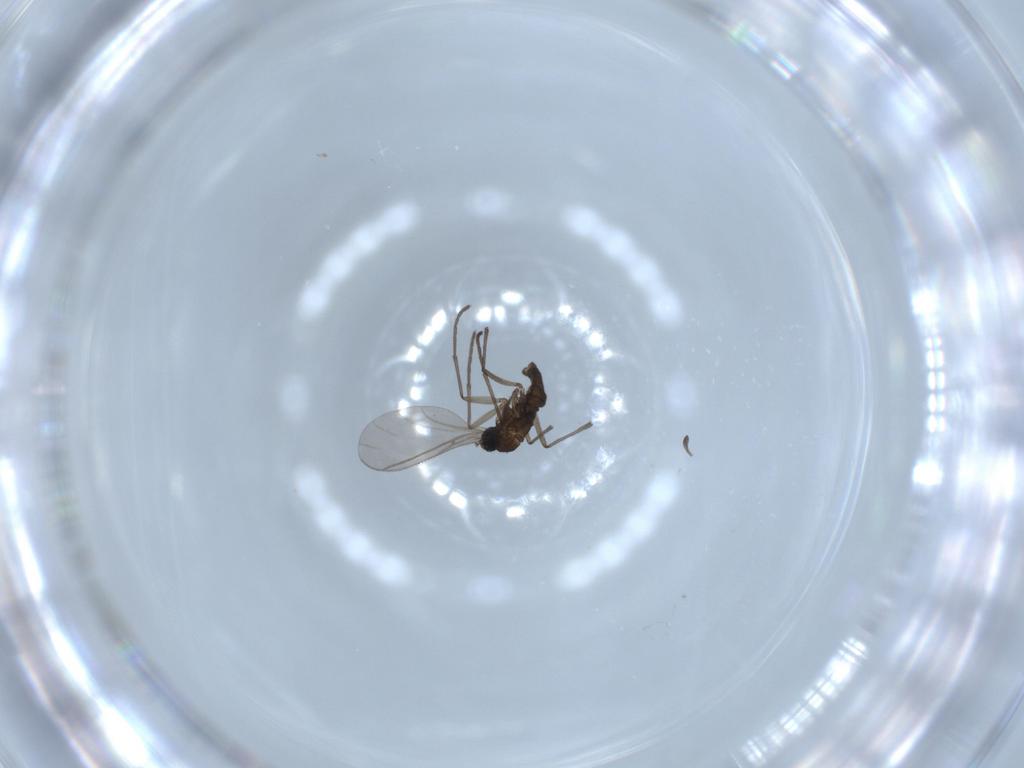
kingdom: Animalia
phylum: Arthropoda
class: Insecta
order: Diptera
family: Sciaridae
